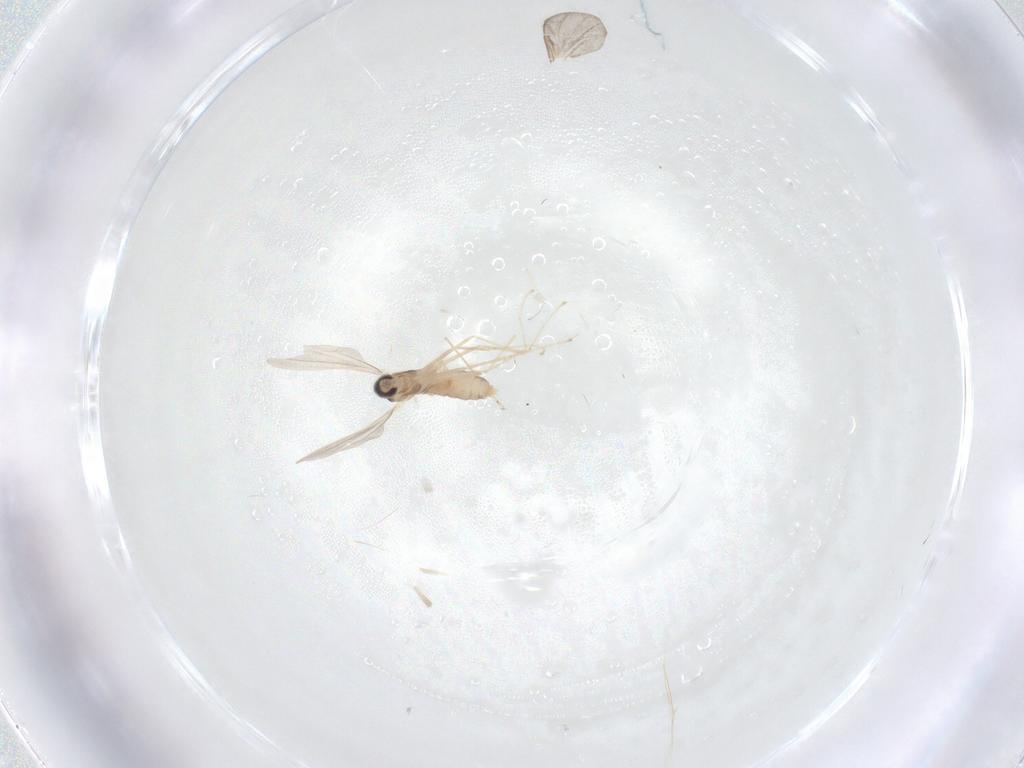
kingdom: Animalia
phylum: Arthropoda
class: Insecta
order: Diptera
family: Cecidomyiidae
